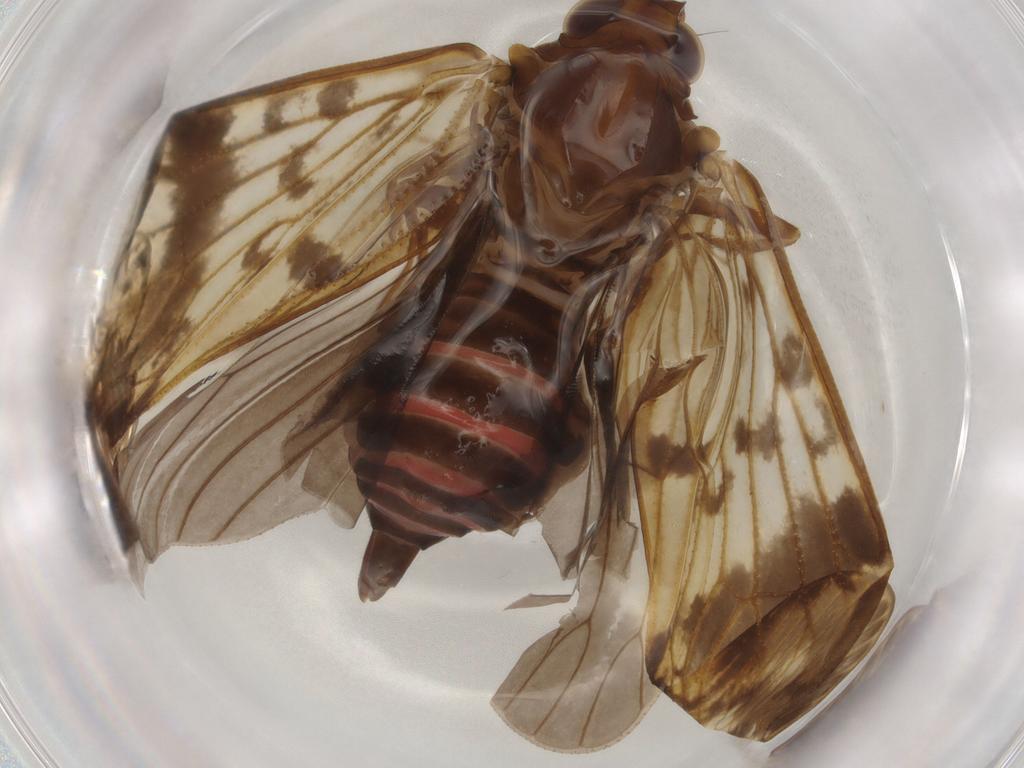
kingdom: Animalia
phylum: Arthropoda
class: Insecta
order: Hemiptera
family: Cixiidae
